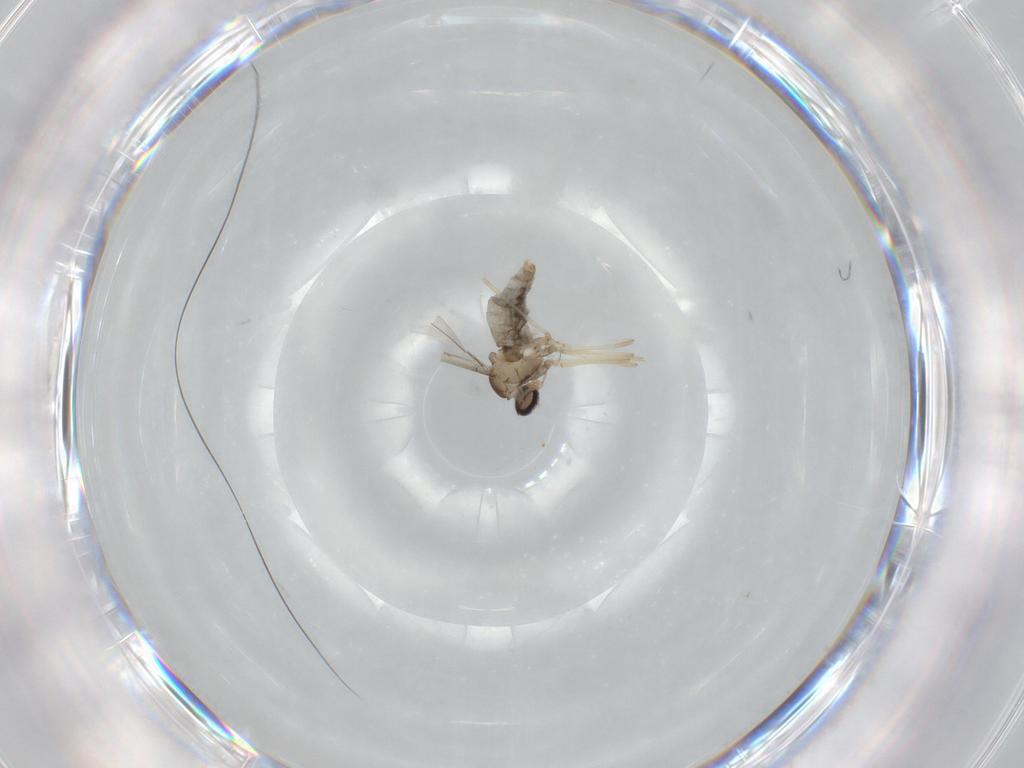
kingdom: Animalia
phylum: Arthropoda
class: Insecta
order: Diptera
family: Cecidomyiidae
